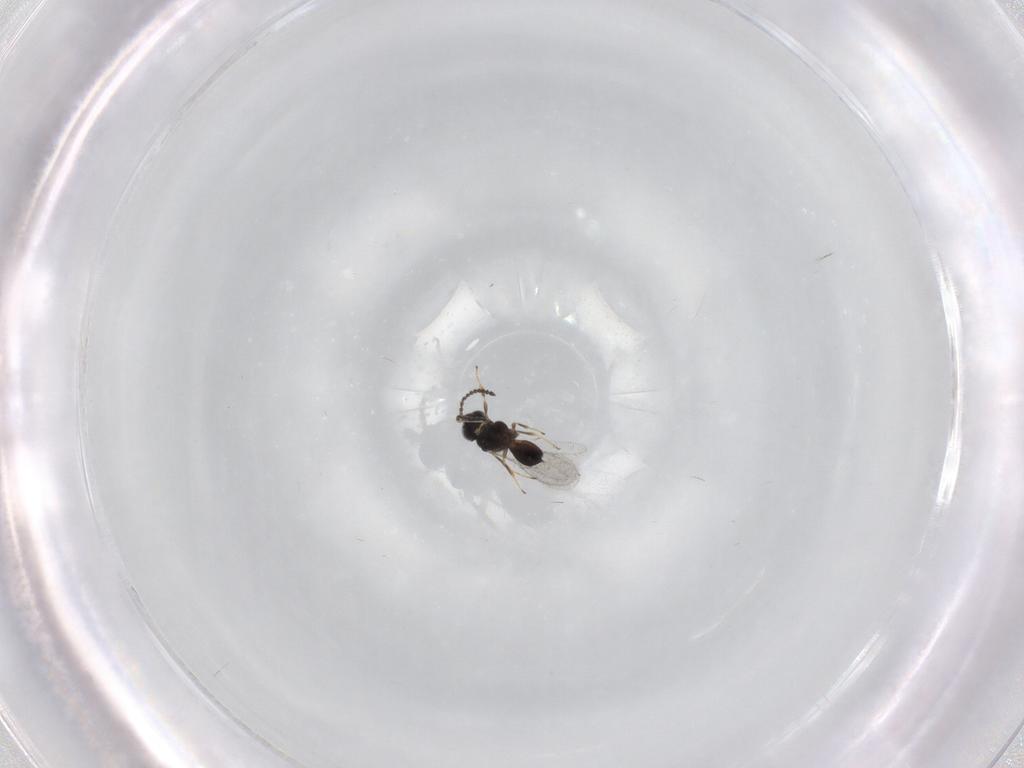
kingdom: Animalia
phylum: Arthropoda
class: Insecta
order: Hymenoptera
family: Scelionidae
